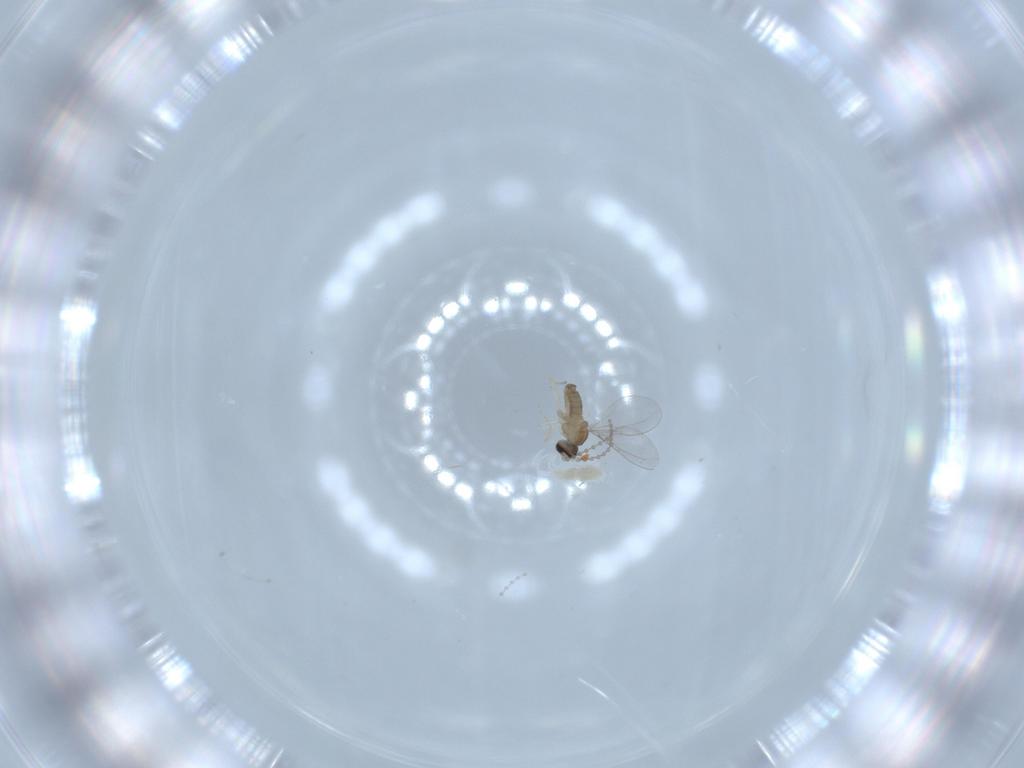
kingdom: Animalia
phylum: Arthropoda
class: Insecta
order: Diptera
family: Cecidomyiidae
